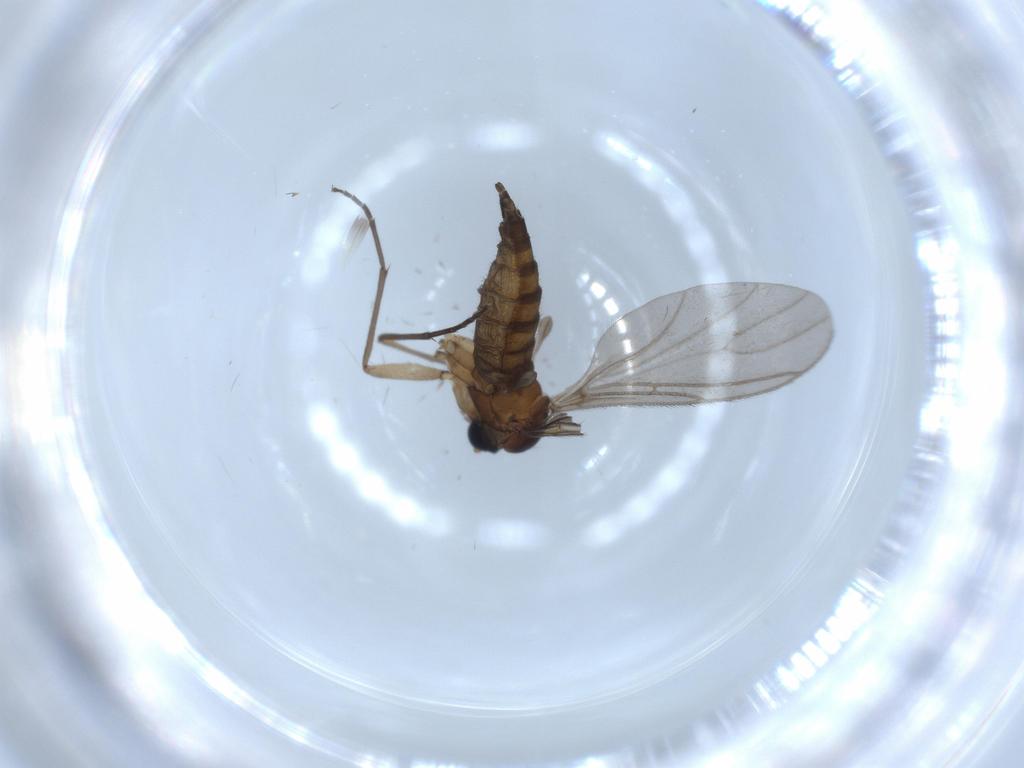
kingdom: Animalia
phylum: Arthropoda
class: Insecta
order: Diptera
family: Sciaridae
